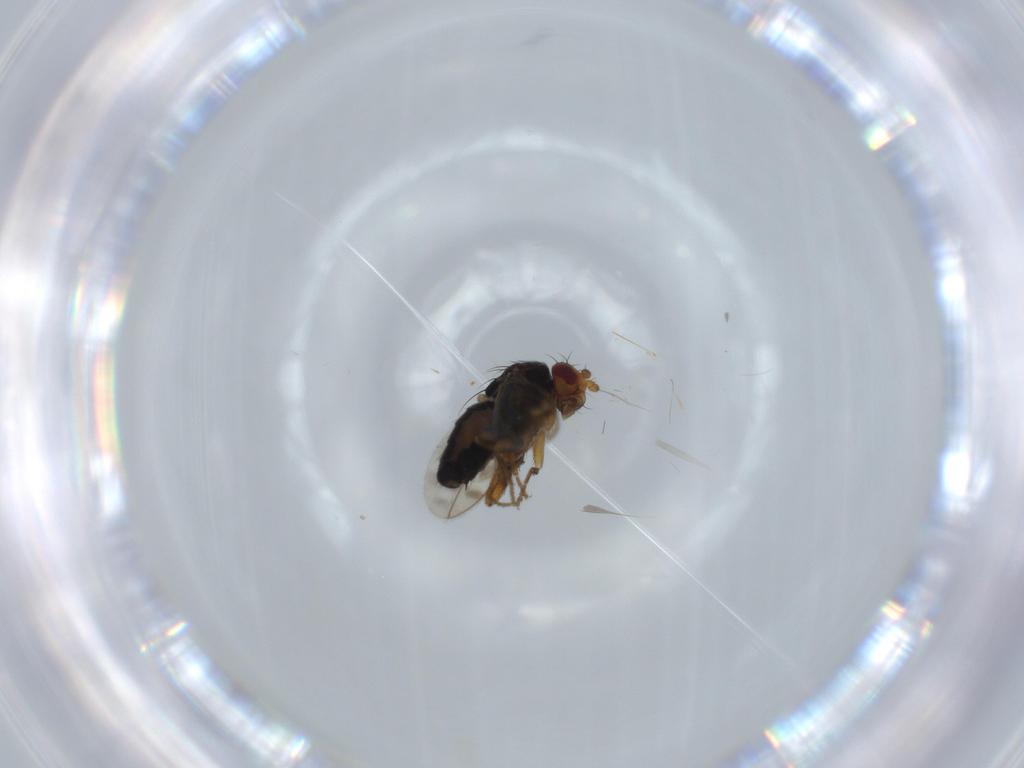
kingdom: Animalia
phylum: Arthropoda
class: Insecta
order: Diptera
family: Sphaeroceridae
